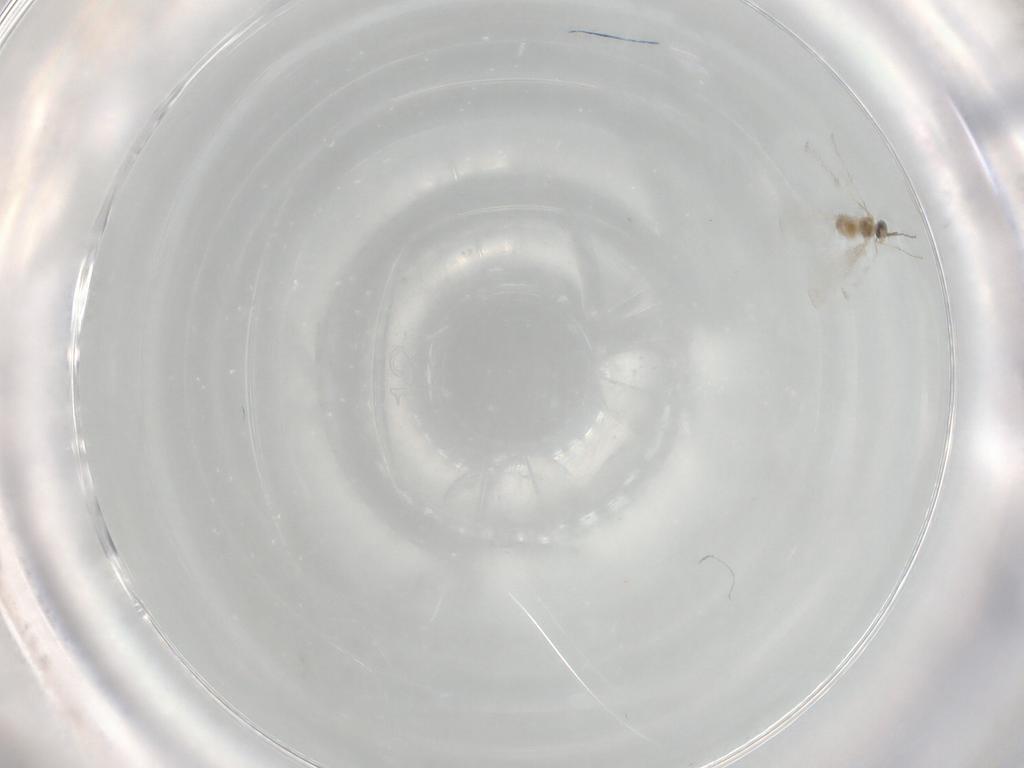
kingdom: Animalia
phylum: Arthropoda
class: Insecta
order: Diptera
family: Cecidomyiidae
